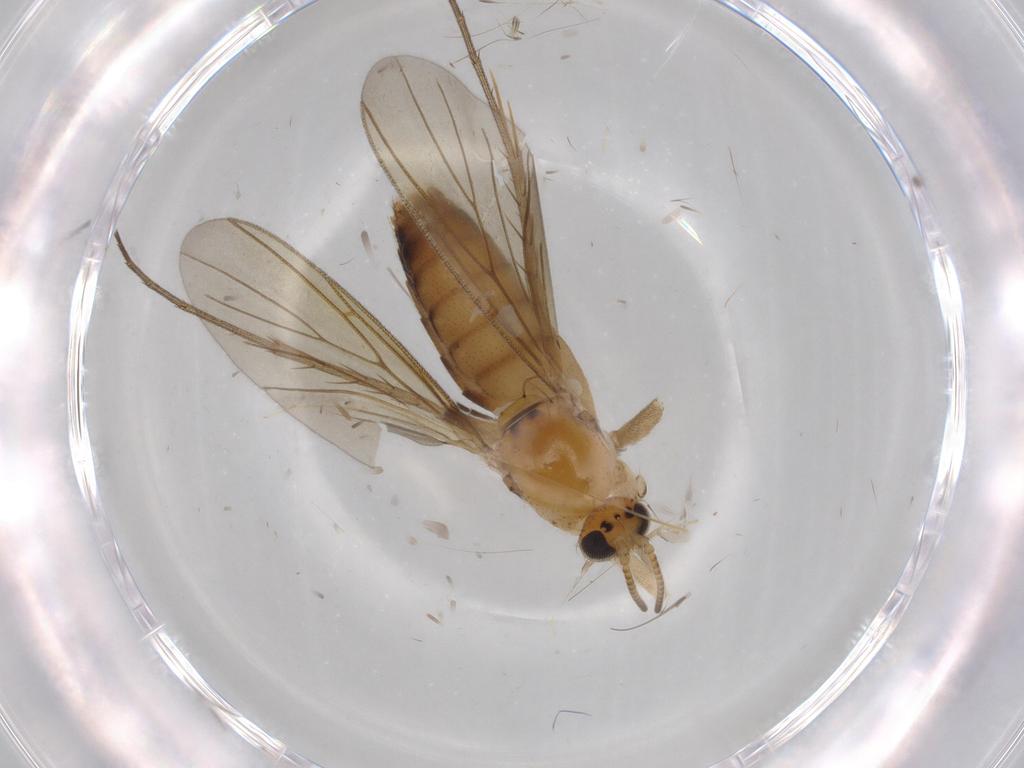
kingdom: Animalia
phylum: Arthropoda
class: Insecta
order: Diptera
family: Mycetophilidae
